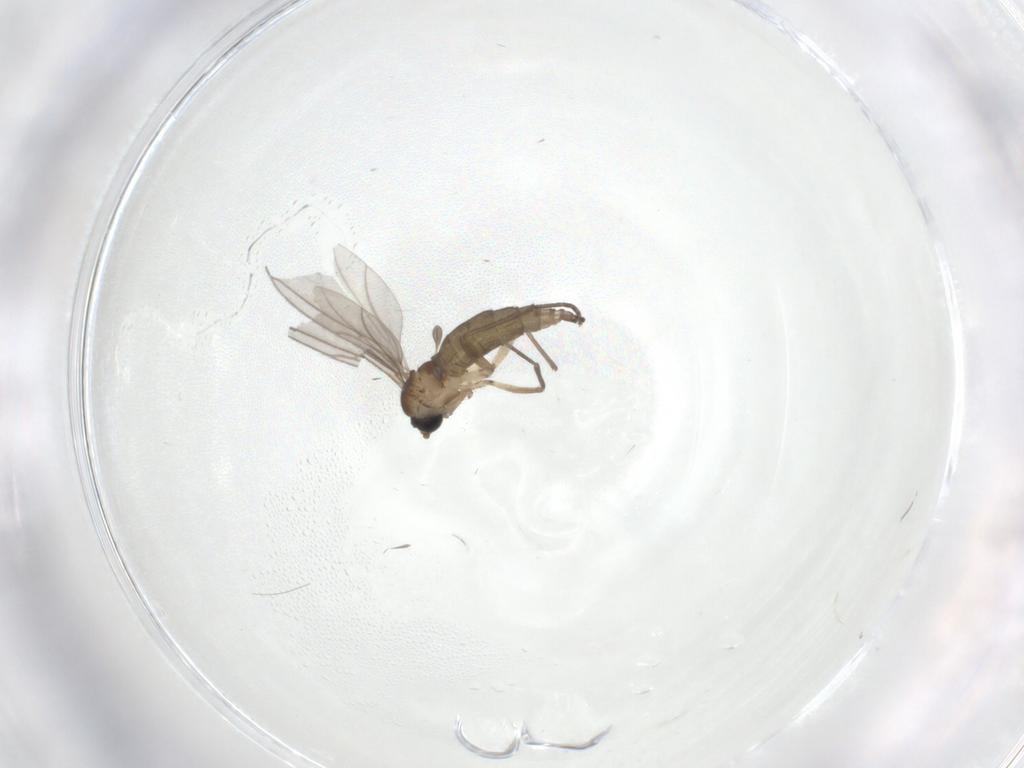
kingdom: Animalia
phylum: Arthropoda
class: Insecta
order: Diptera
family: Sciaridae
